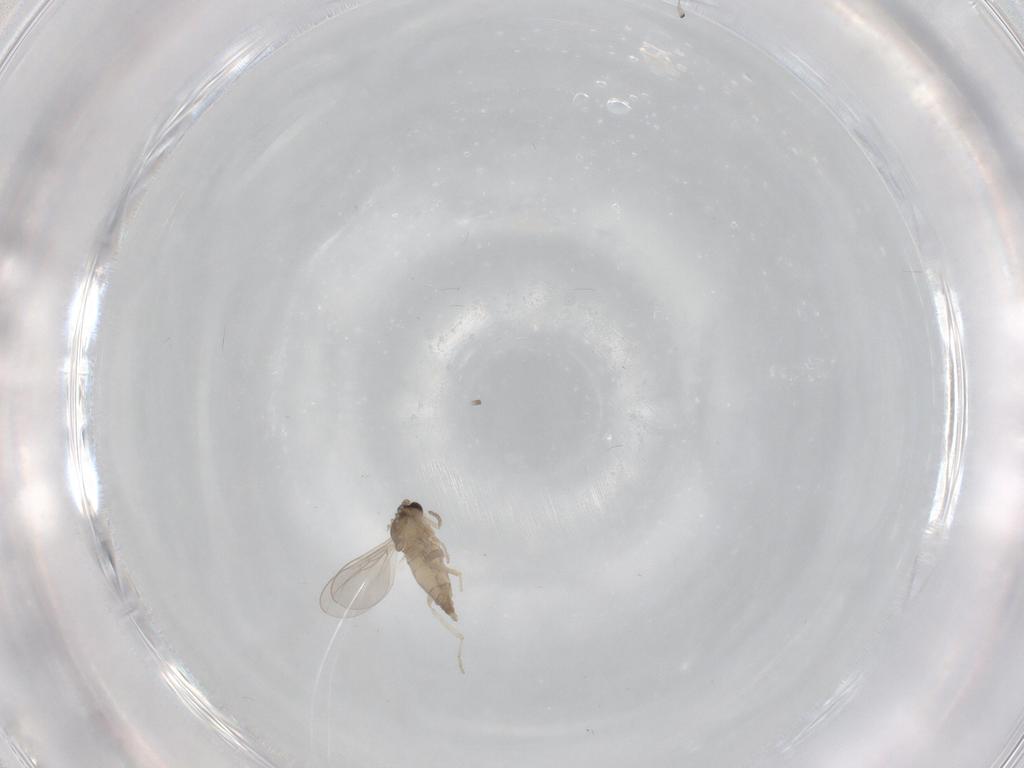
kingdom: Animalia
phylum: Arthropoda
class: Insecta
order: Diptera
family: Cecidomyiidae
